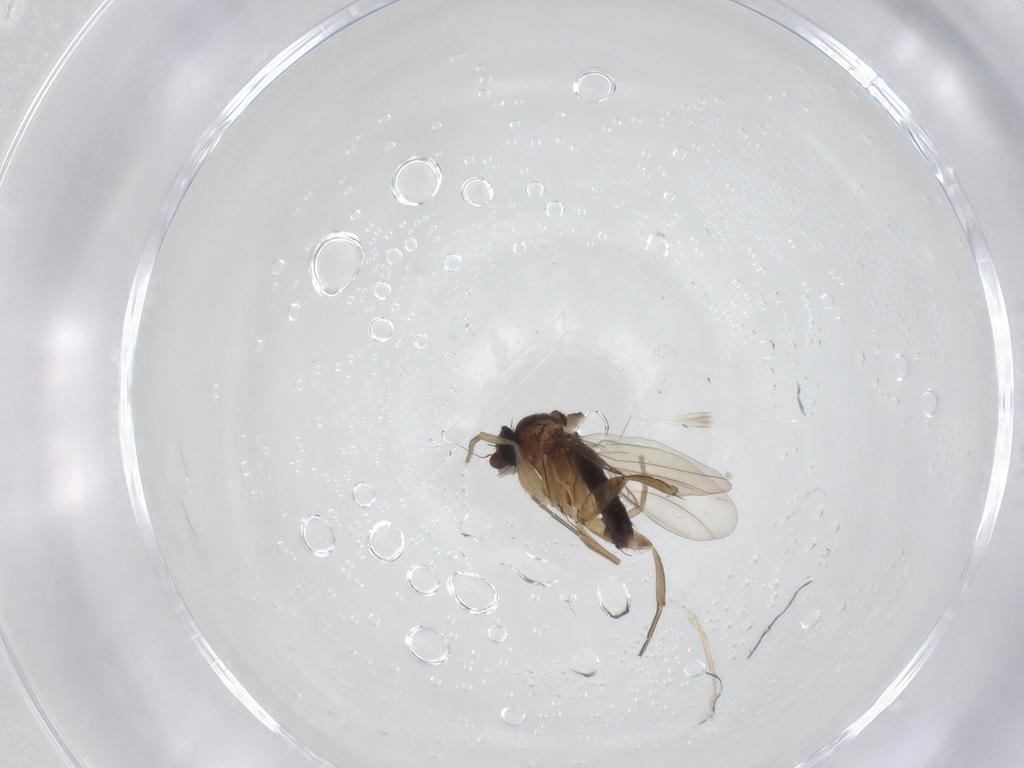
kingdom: Animalia
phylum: Arthropoda
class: Insecta
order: Diptera
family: Phoridae
